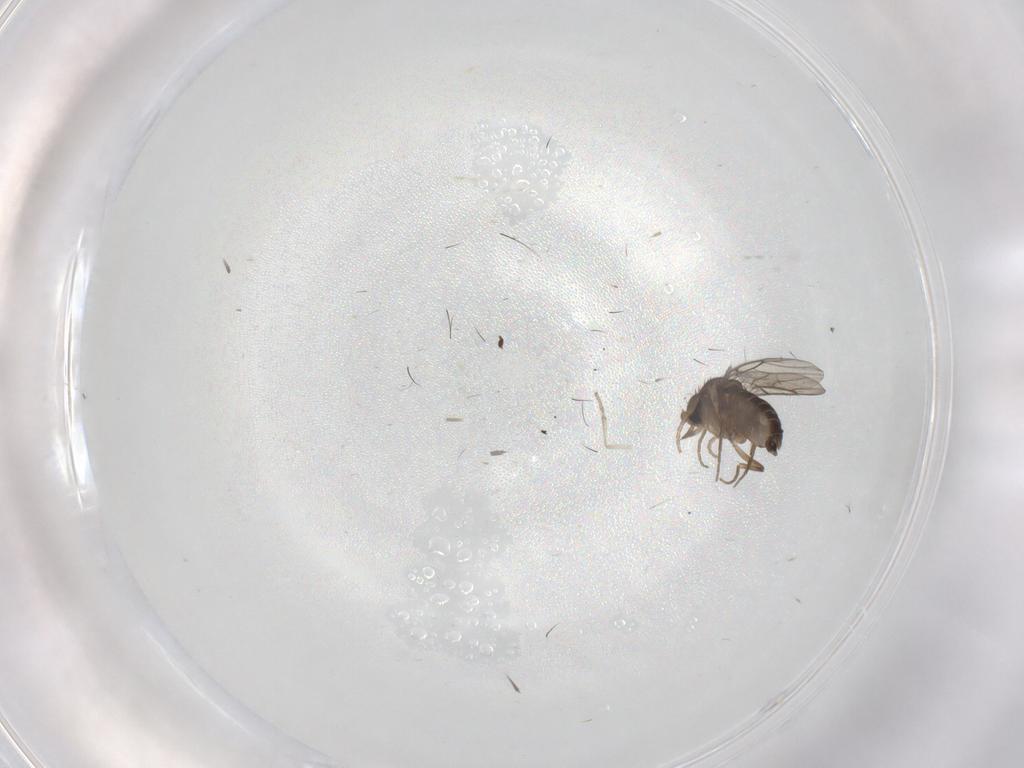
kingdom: Animalia
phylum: Arthropoda
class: Insecta
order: Diptera
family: Psychodidae
